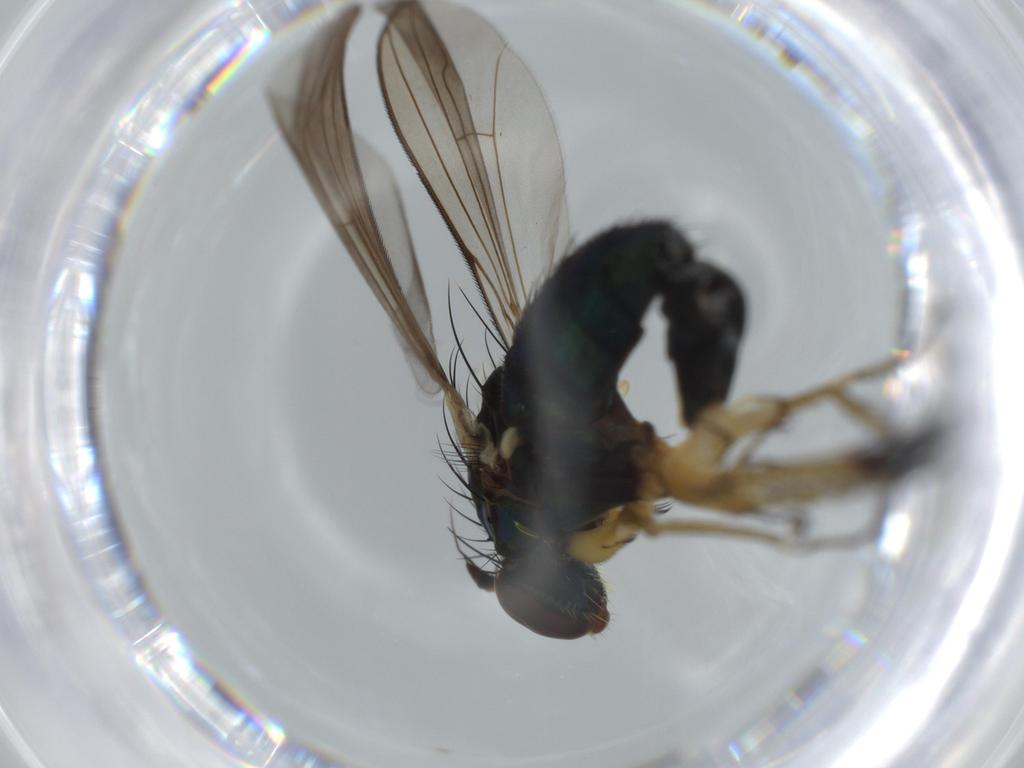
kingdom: Animalia
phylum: Arthropoda
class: Insecta
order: Diptera
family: Dolichopodidae
